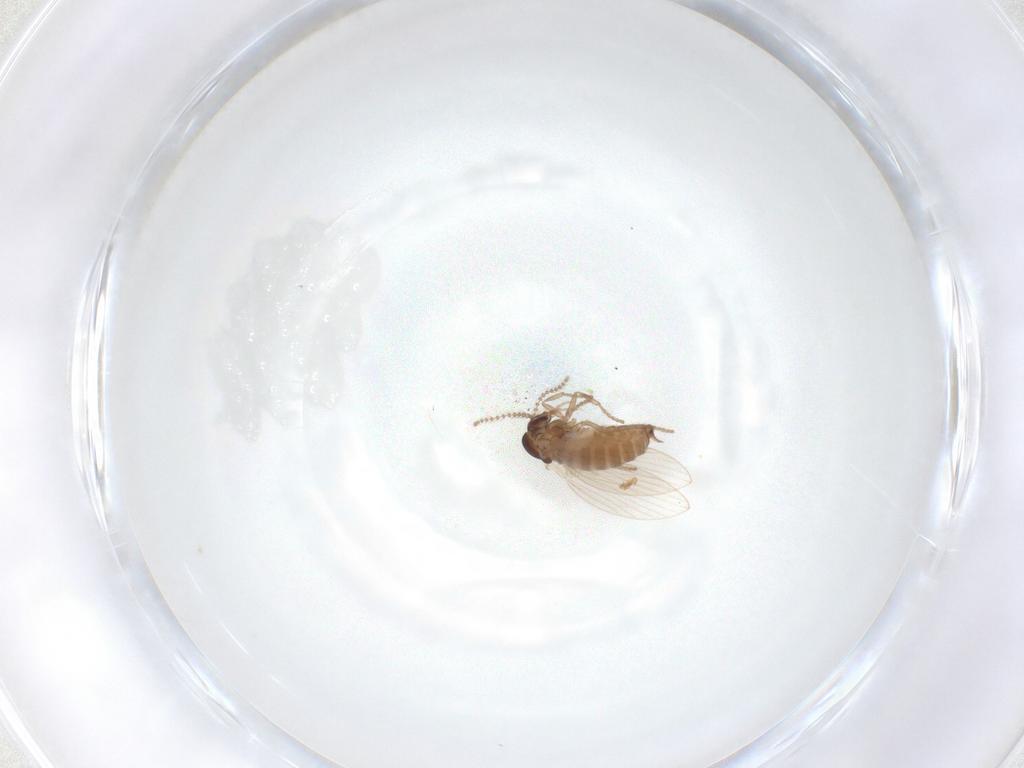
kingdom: Animalia
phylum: Arthropoda
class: Insecta
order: Diptera
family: Psychodidae
